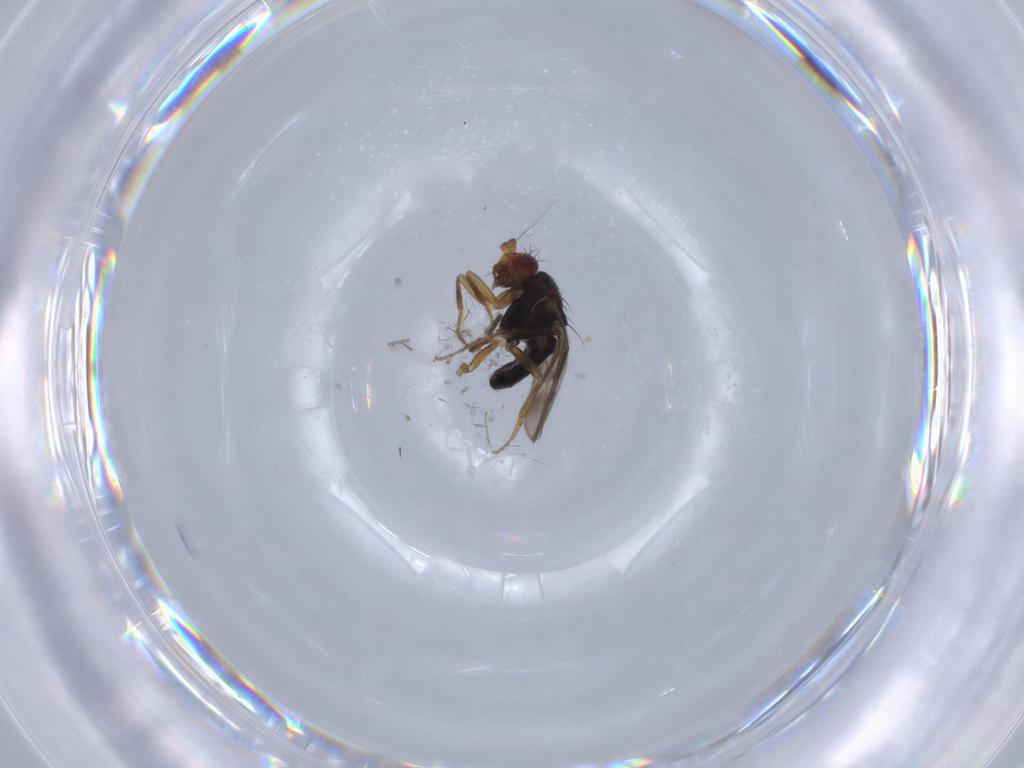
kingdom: Animalia
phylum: Arthropoda
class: Insecta
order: Diptera
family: Sphaeroceridae
